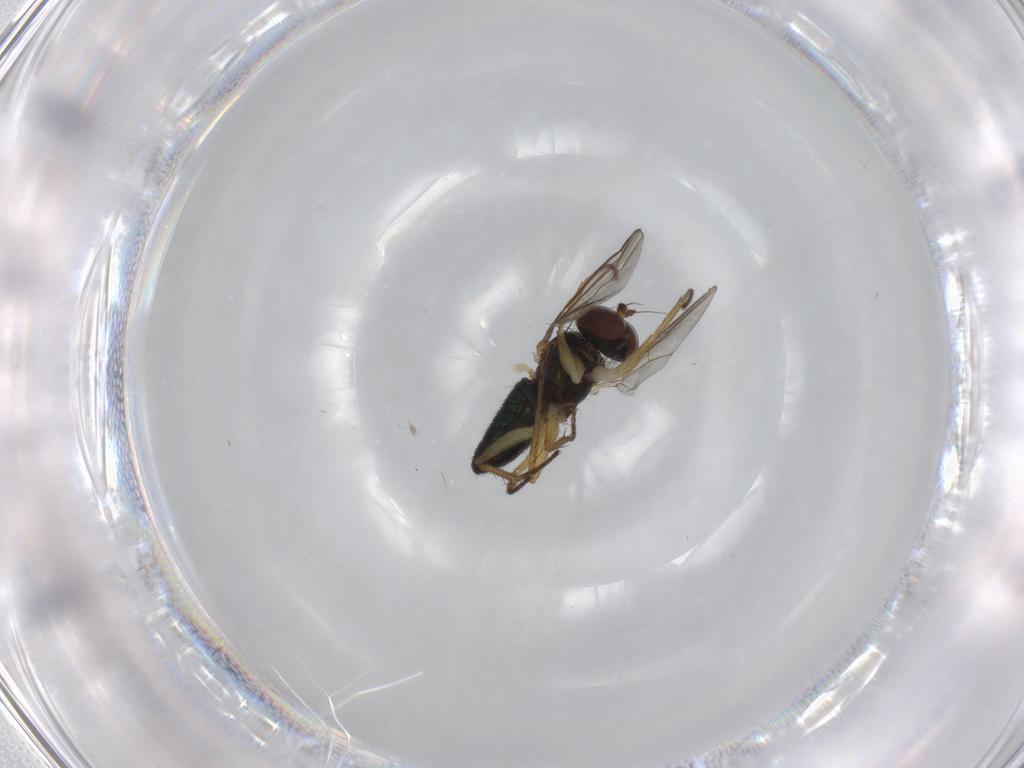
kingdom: Animalia
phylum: Arthropoda
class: Insecta
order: Diptera
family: Dolichopodidae
